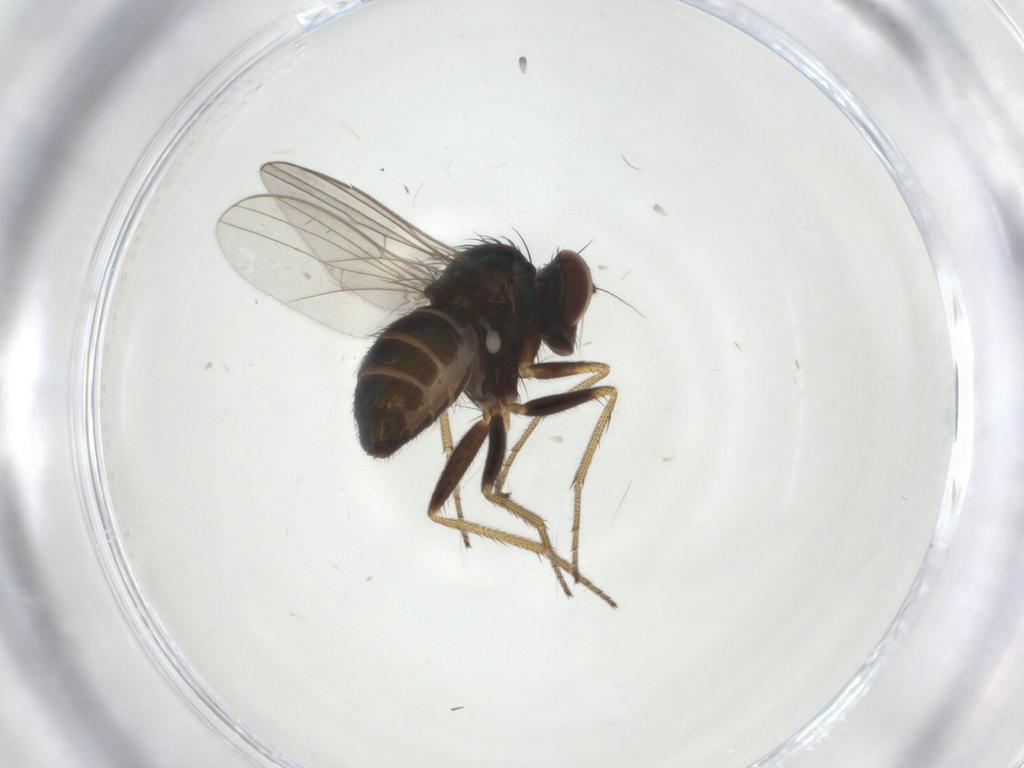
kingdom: Animalia
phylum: Arthropoda
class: Insecta
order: Diptera
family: Dolichopodidae
